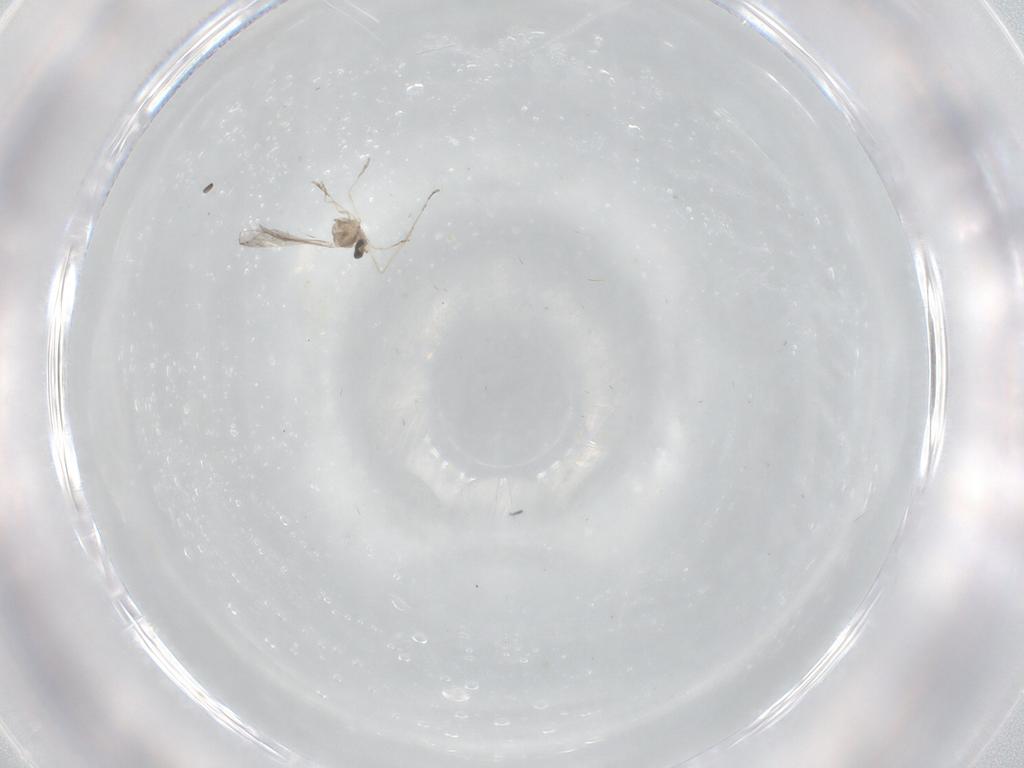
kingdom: Animalia
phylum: Arthropoda
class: Insecta
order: Diptera
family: Cecidomyiidae
